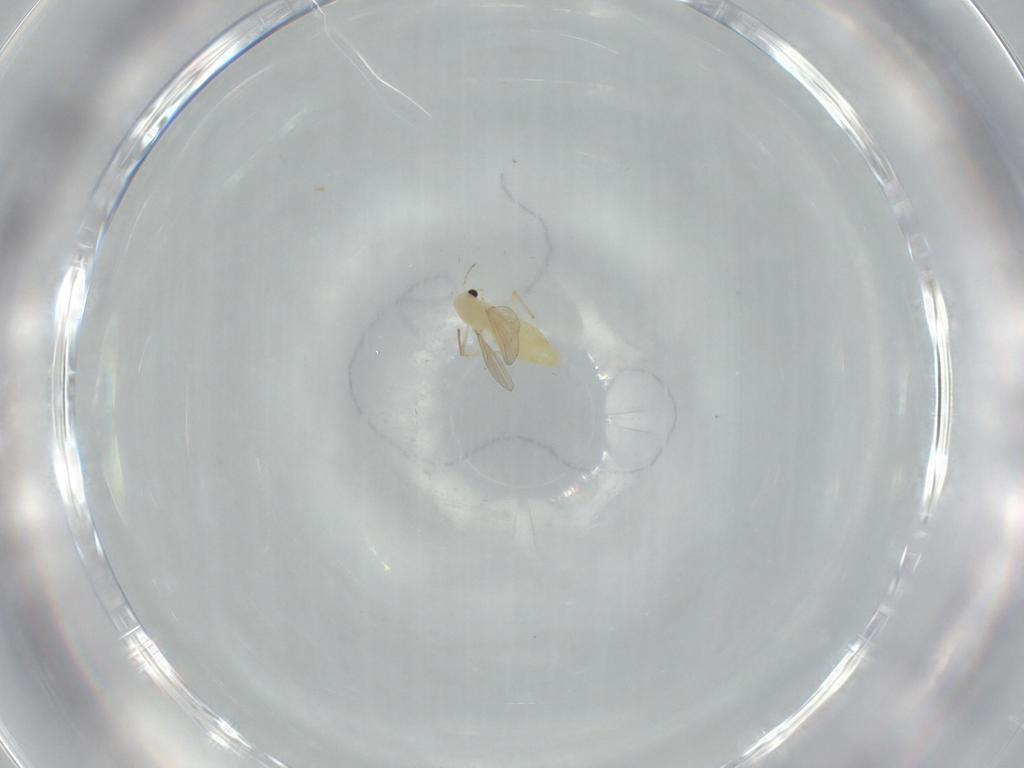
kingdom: Animalia
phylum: Arthropoda
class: Insecta
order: Diptera
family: Chironomidae
